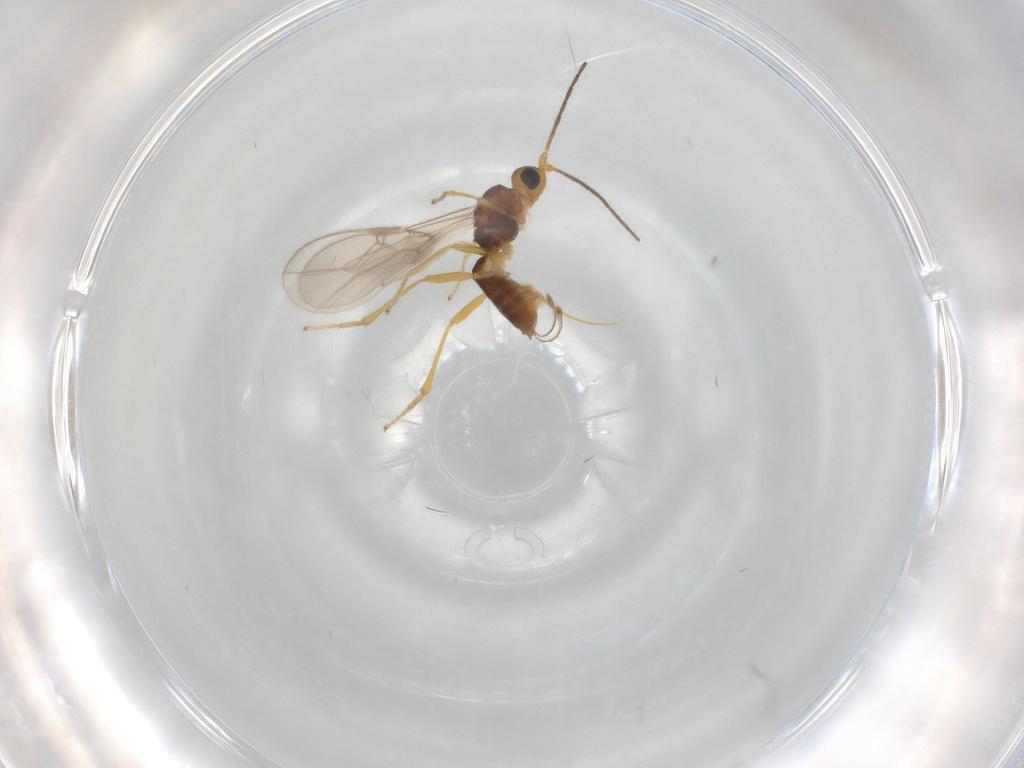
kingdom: Animalia
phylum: Arthropoda
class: Insecta
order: Hymenoptera
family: Braconidae
